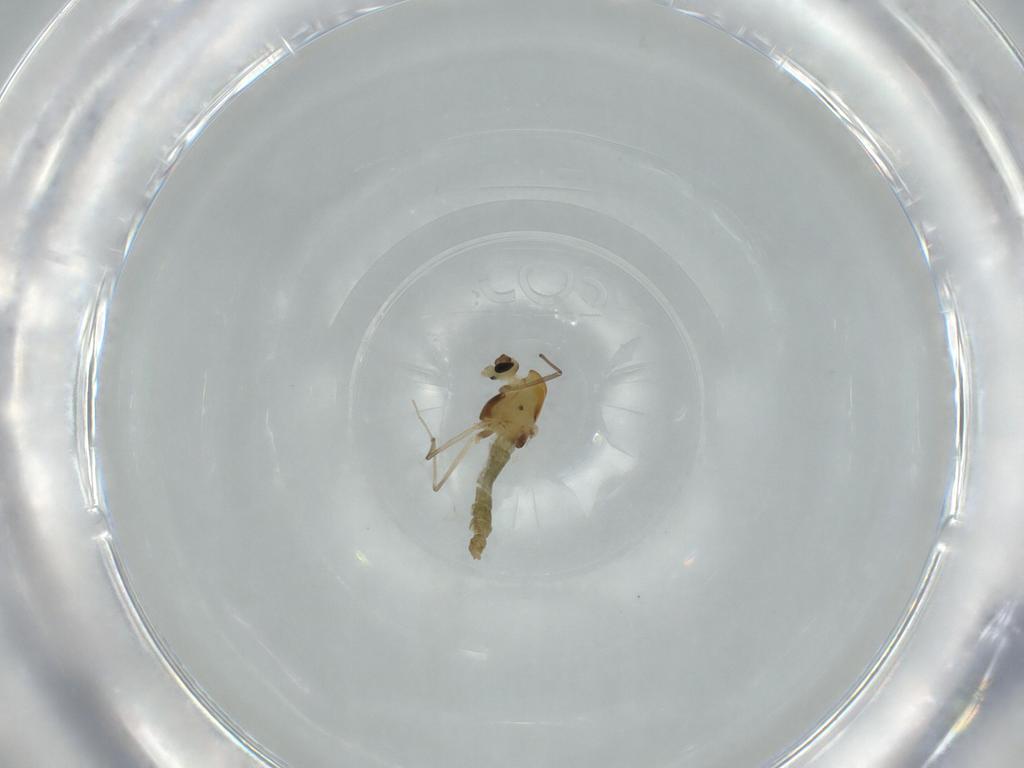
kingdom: Animalia
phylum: Arthropoda
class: Insecta
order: Diptera
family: Chironomidae
